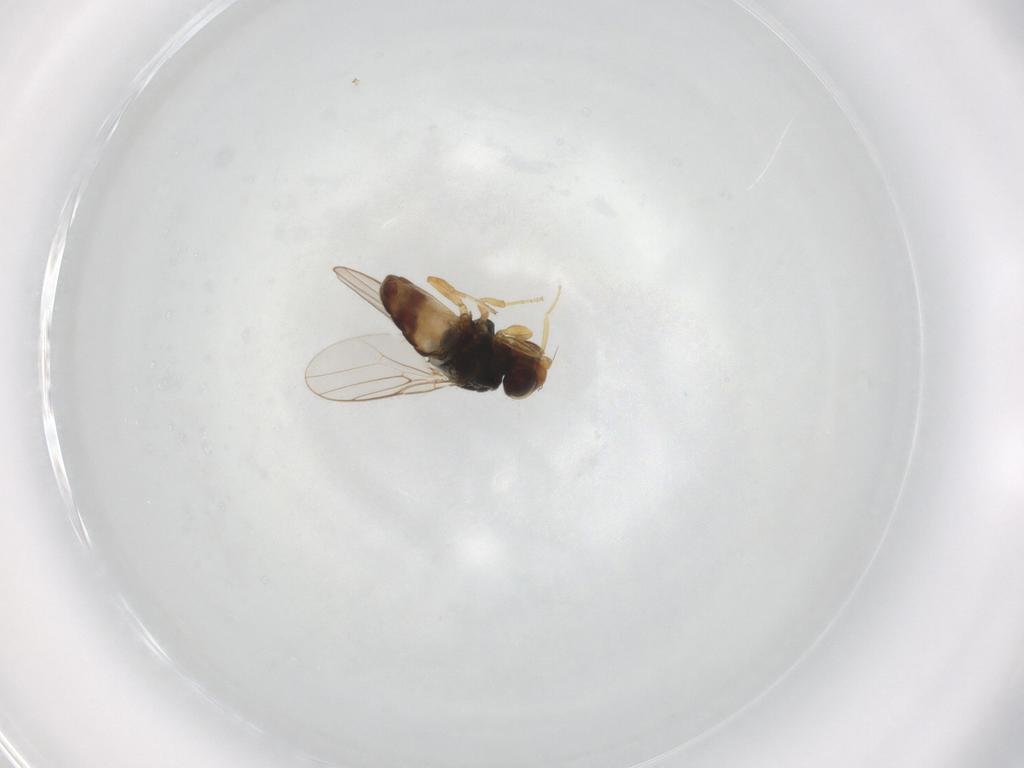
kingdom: Animalia
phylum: Arthropoda
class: Insecta
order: Diptera
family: Chloropidae
